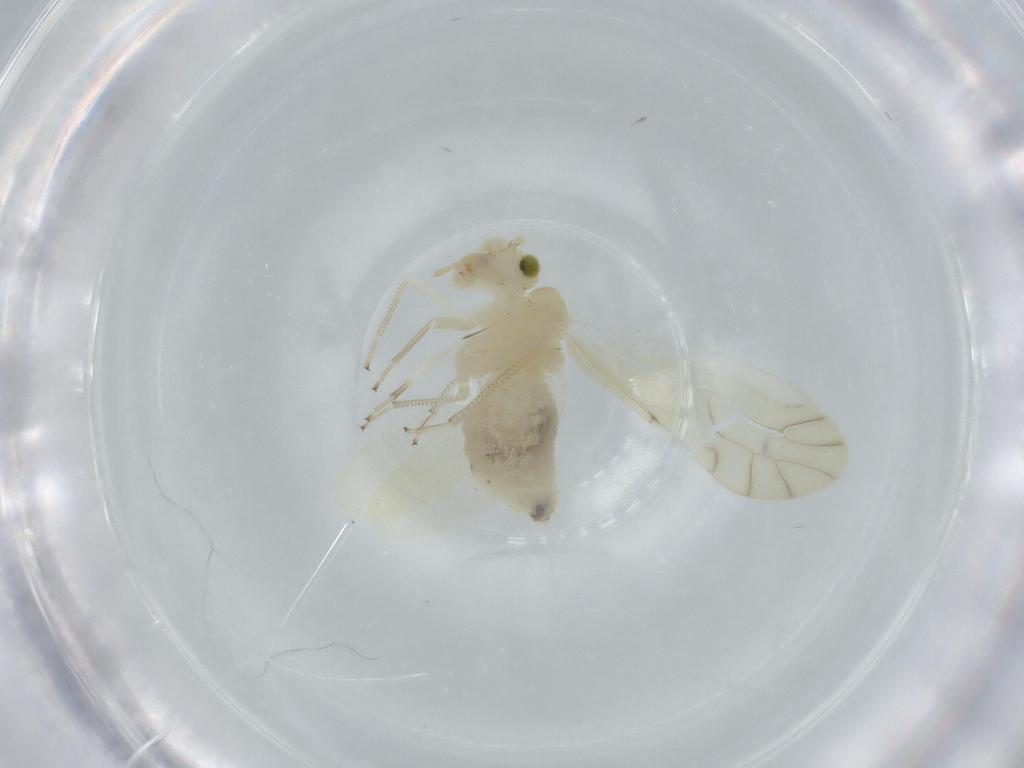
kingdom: Animalia
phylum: Arthropoda
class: Insecta
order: Psocodea
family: Caeciliusidae
